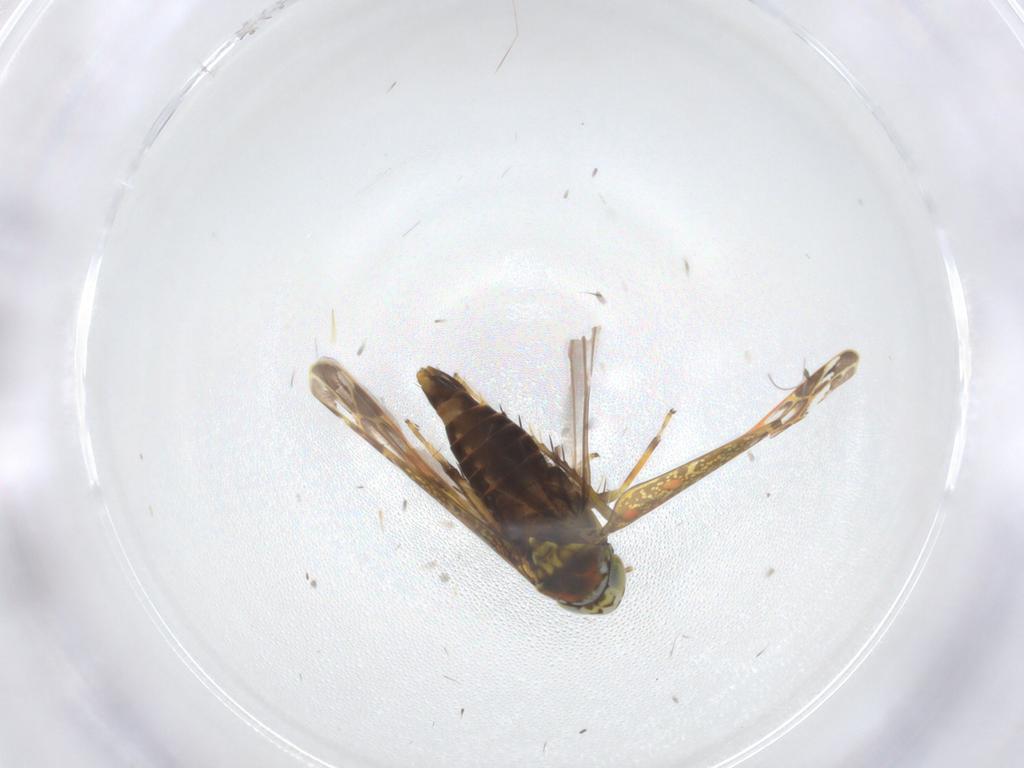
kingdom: Animalia
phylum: Arthropoda
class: Insecta
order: Hemiptera
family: Cicadellidae
